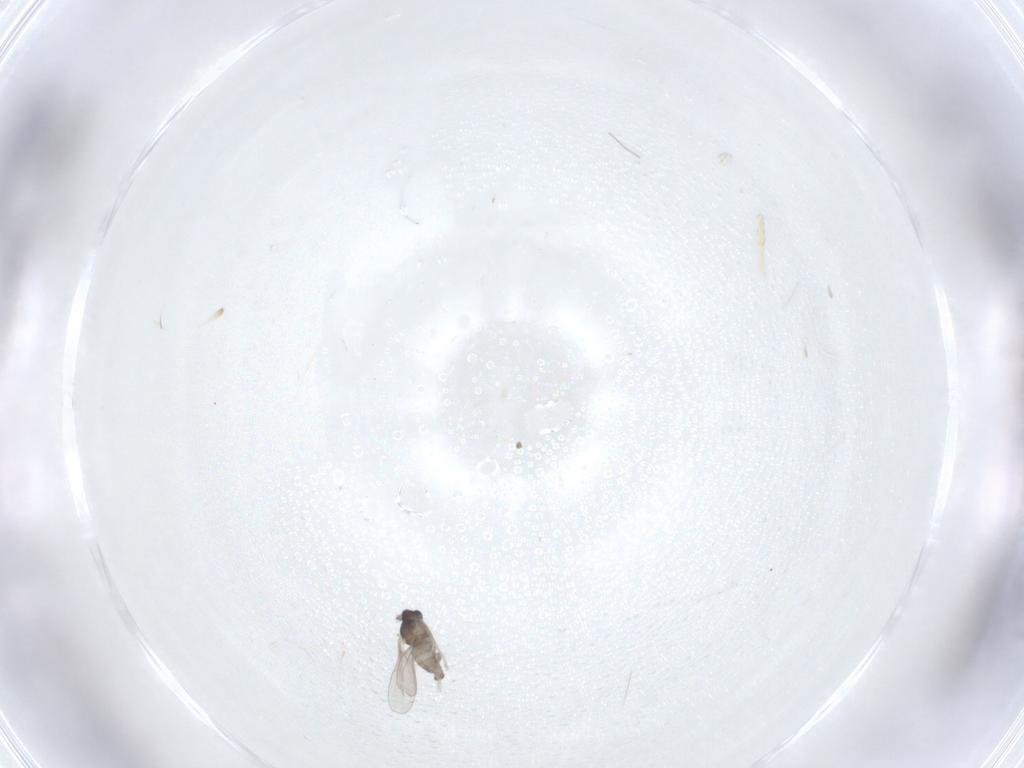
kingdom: Animalia
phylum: Arthropoda
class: Insecta
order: Diptera
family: Cecidomyiidae
